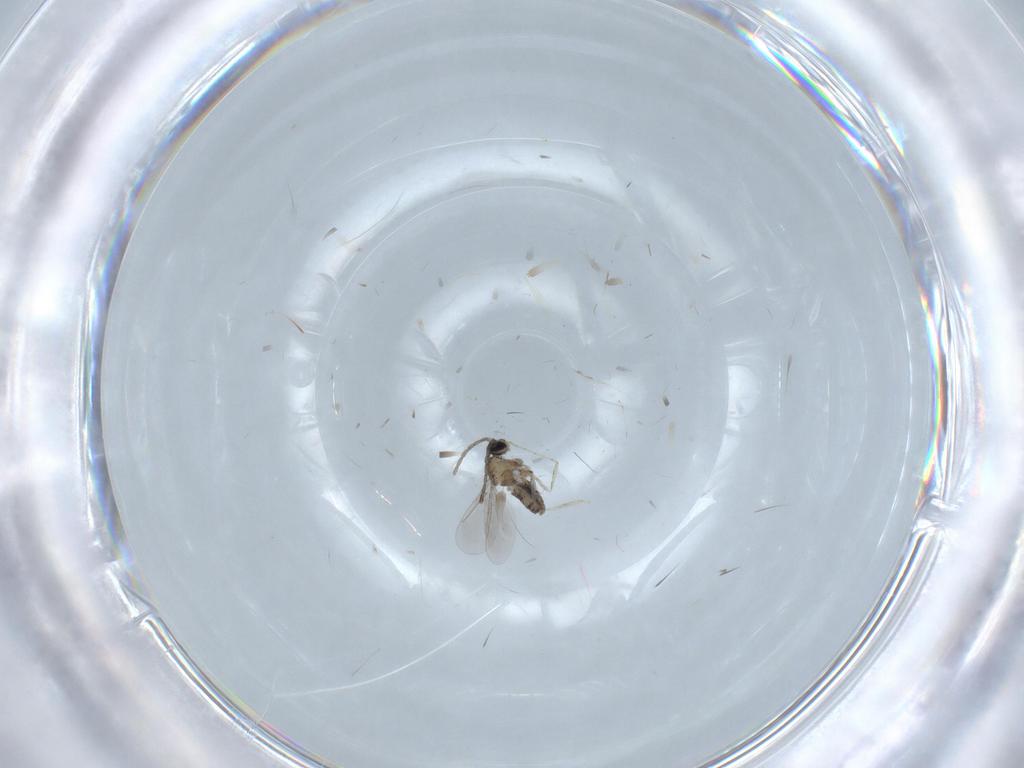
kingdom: Animalia
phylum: Arthropoda
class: Insecta
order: Diptera
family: Cecidomyiidae
